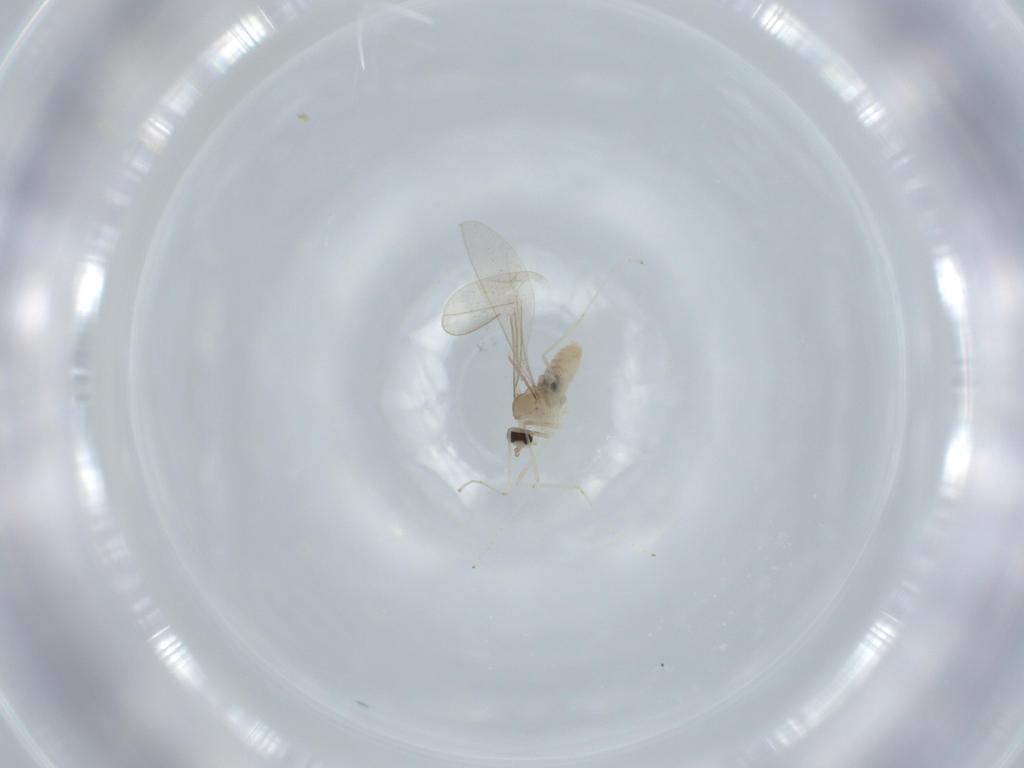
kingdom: Animalia
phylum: Arthropoda
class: Insecta
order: Diptera
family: Cecidomyiidae
